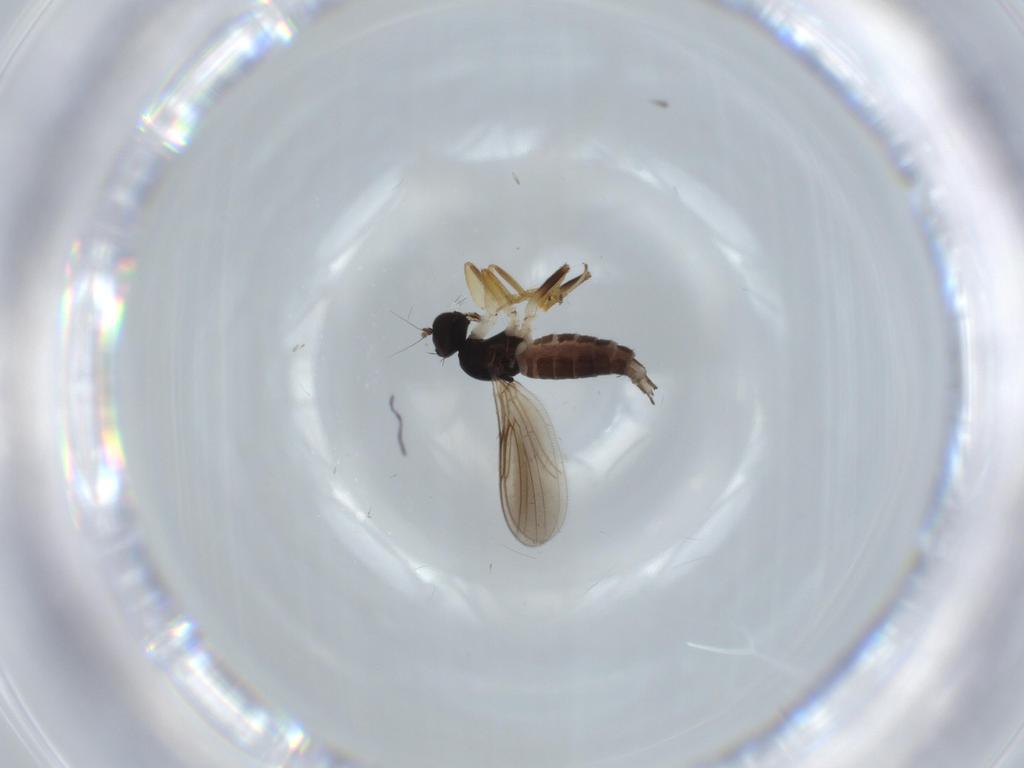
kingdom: Animalia
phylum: Arthropoda
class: Insecta
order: Diptera
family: Hybotidae
